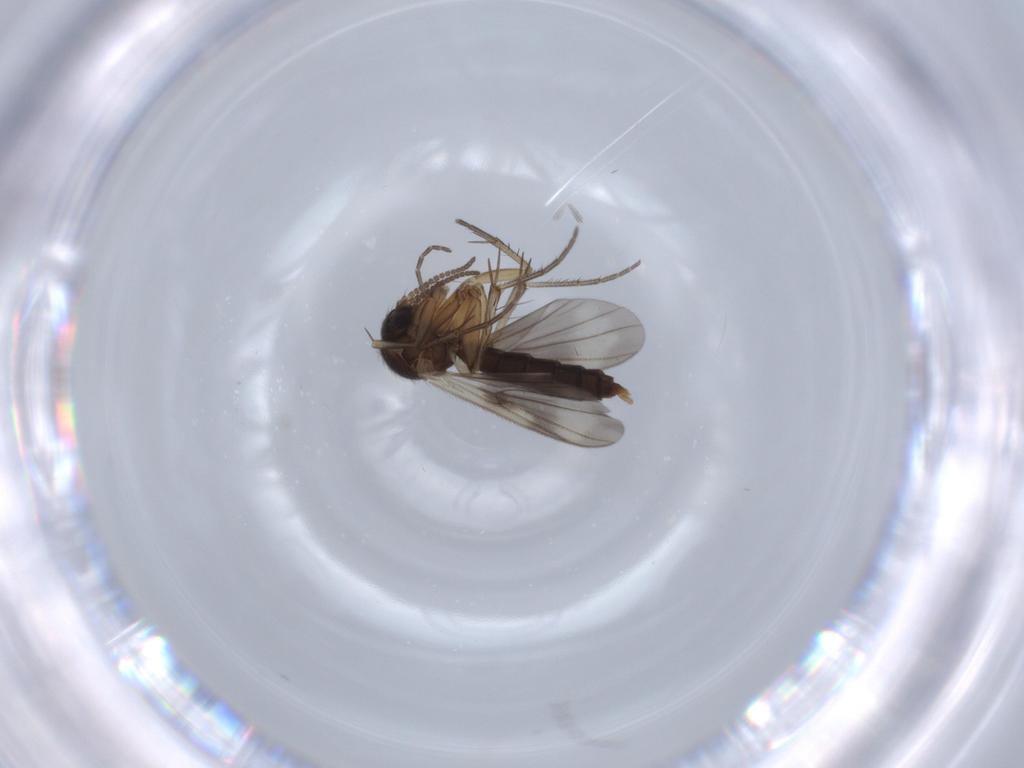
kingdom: Animalia
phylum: Arthropoda
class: Insecta
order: Diptera
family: Mycetophilidae
